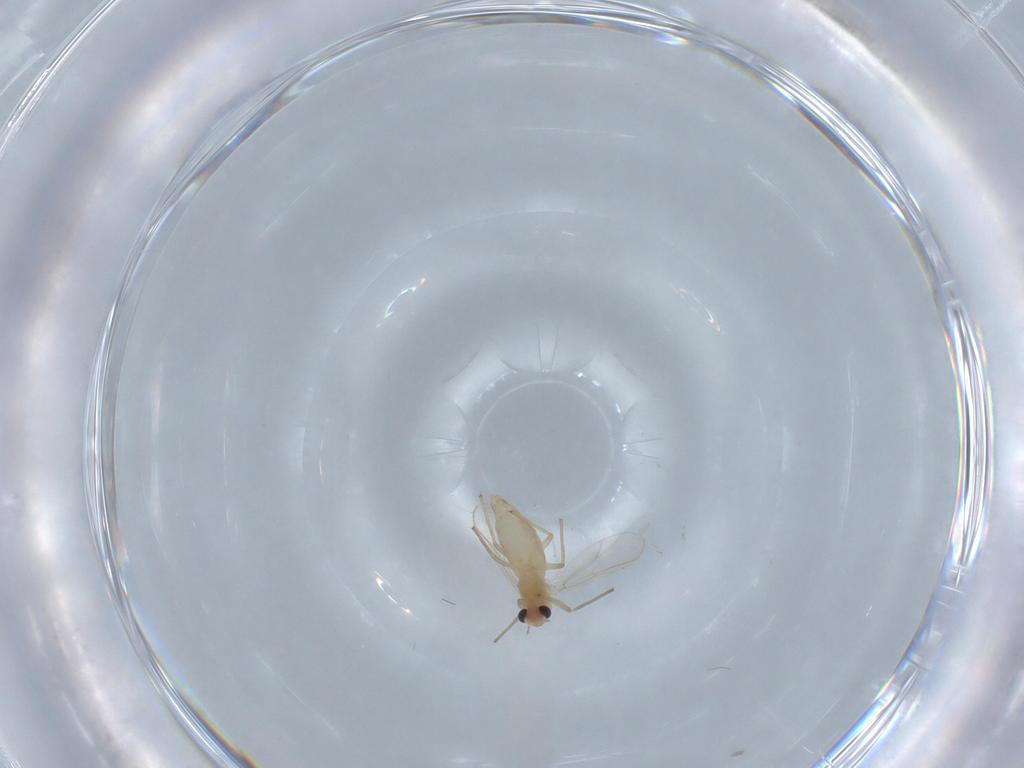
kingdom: Animalia
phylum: Arthropoda
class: Insecta
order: Diptera
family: Chironomidae
